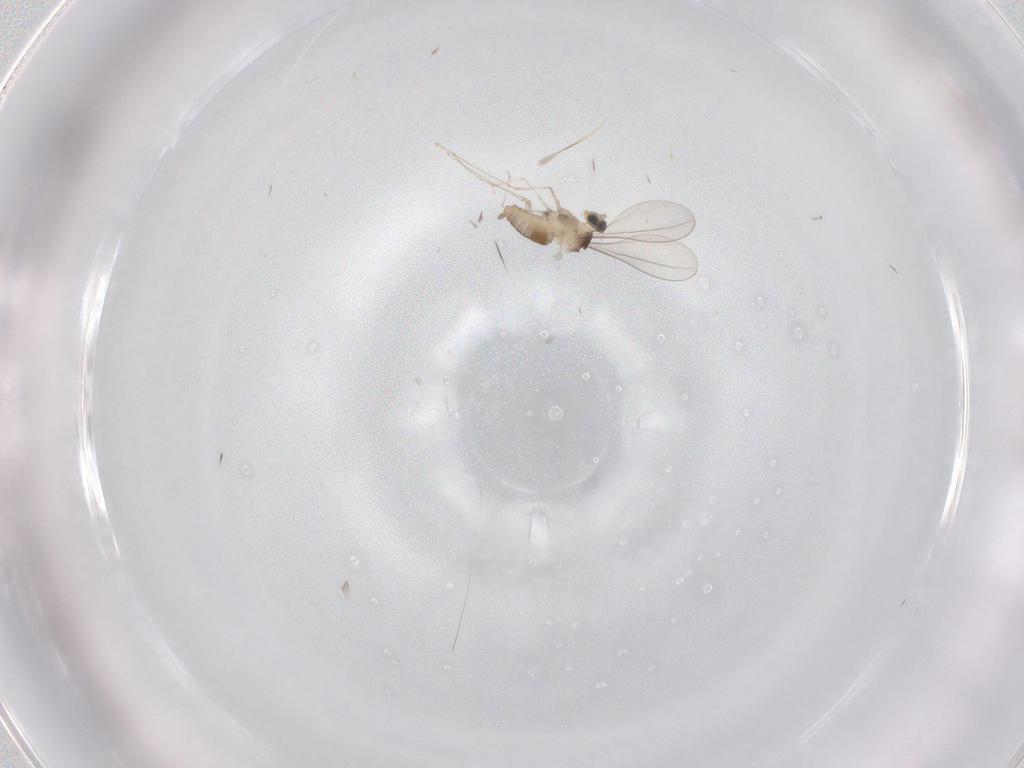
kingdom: Animalia
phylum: Arthropoda
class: Insecta
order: Diptera
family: Cecidomyiidae
